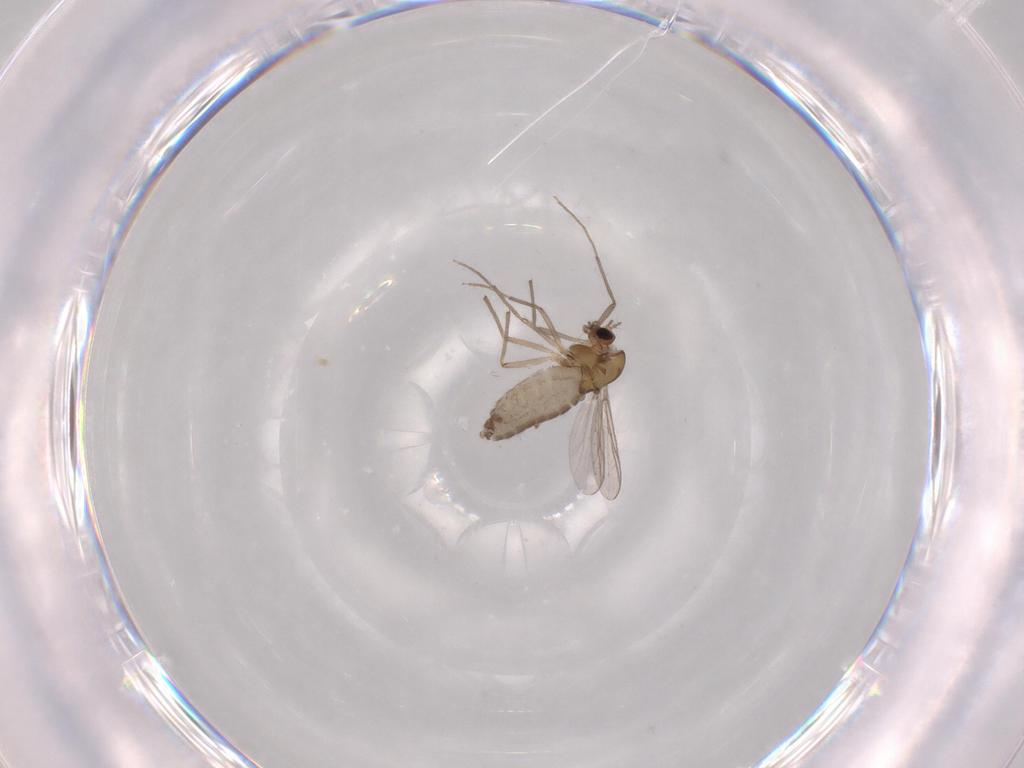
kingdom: Animalia
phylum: Arthropoda
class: Insecta
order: Diptera
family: Chironomidae
